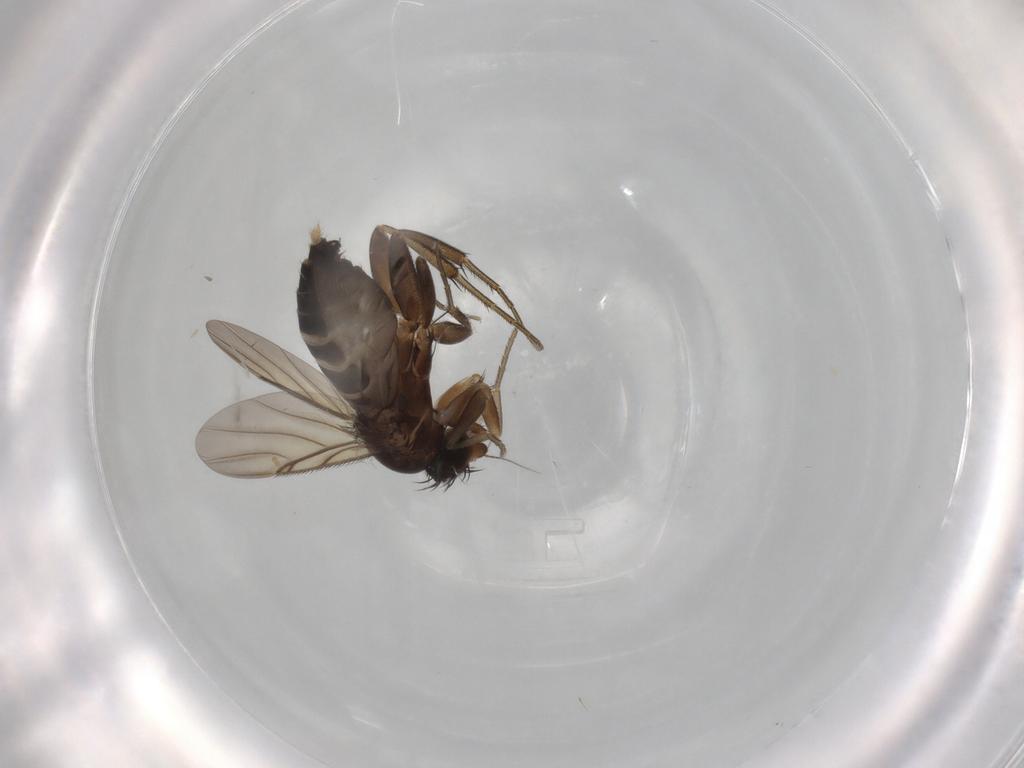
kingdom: Animalia
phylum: Arthropoda
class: Insecta
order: Diptera
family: Phoridae
